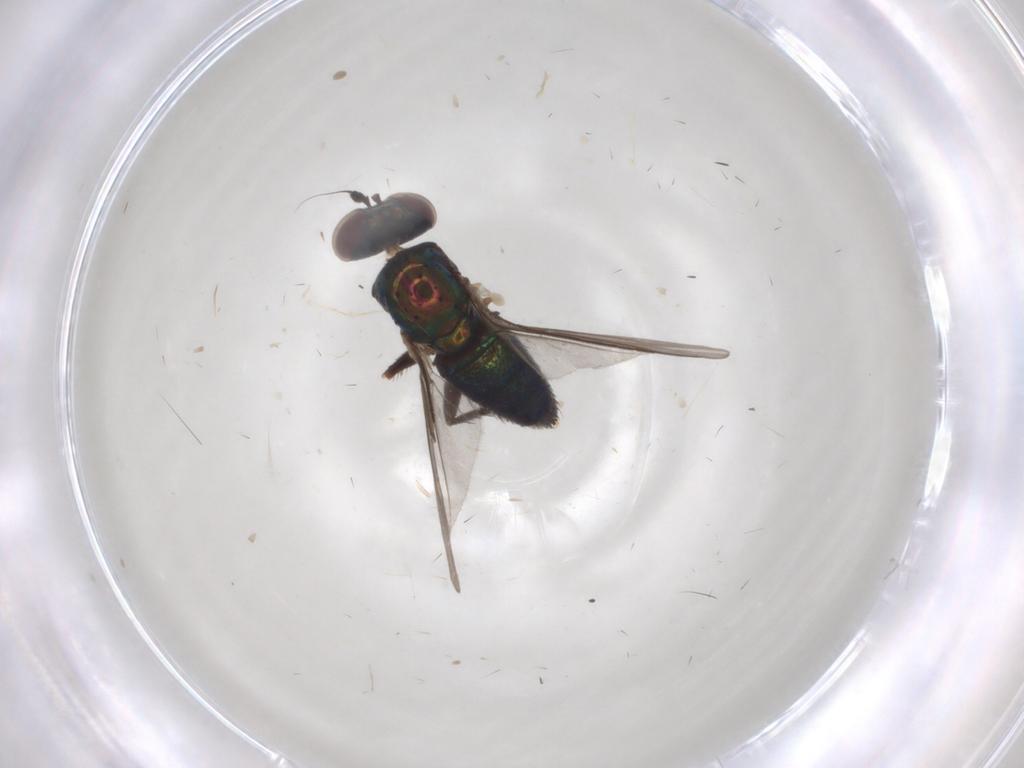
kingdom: Animalia
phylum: Arthropoda
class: Insecta
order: Diptera
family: Dolichopodidae
